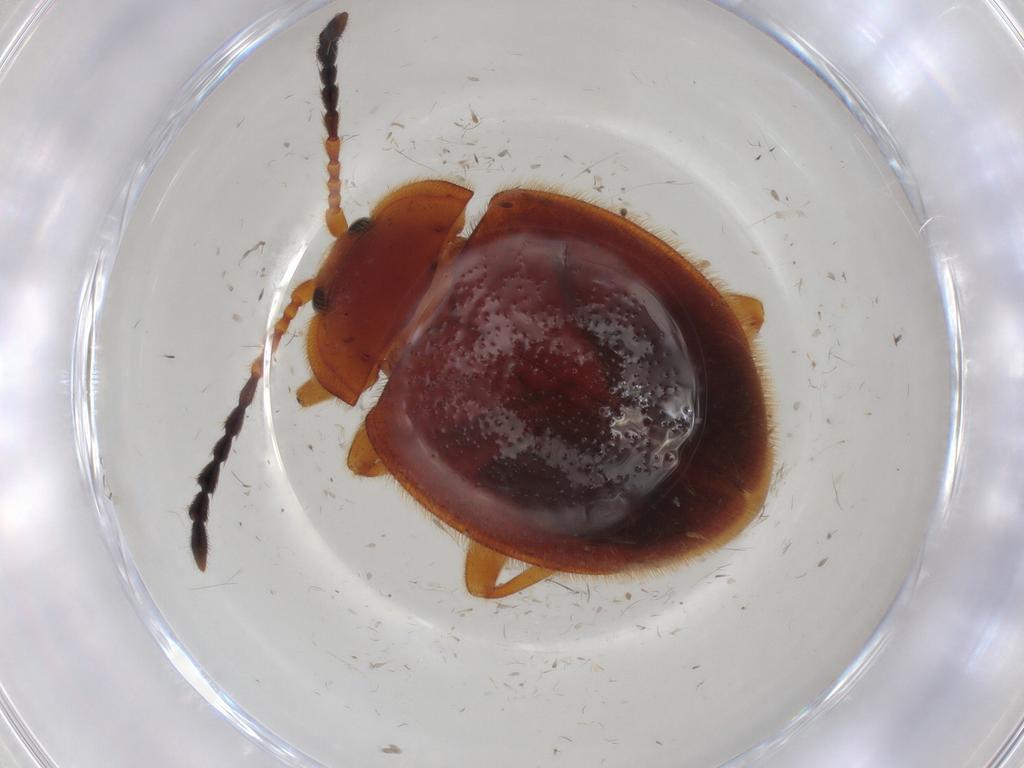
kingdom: Animalia
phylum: Arthropoda
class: Insecta
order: Coleoptera
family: Endomychidae
